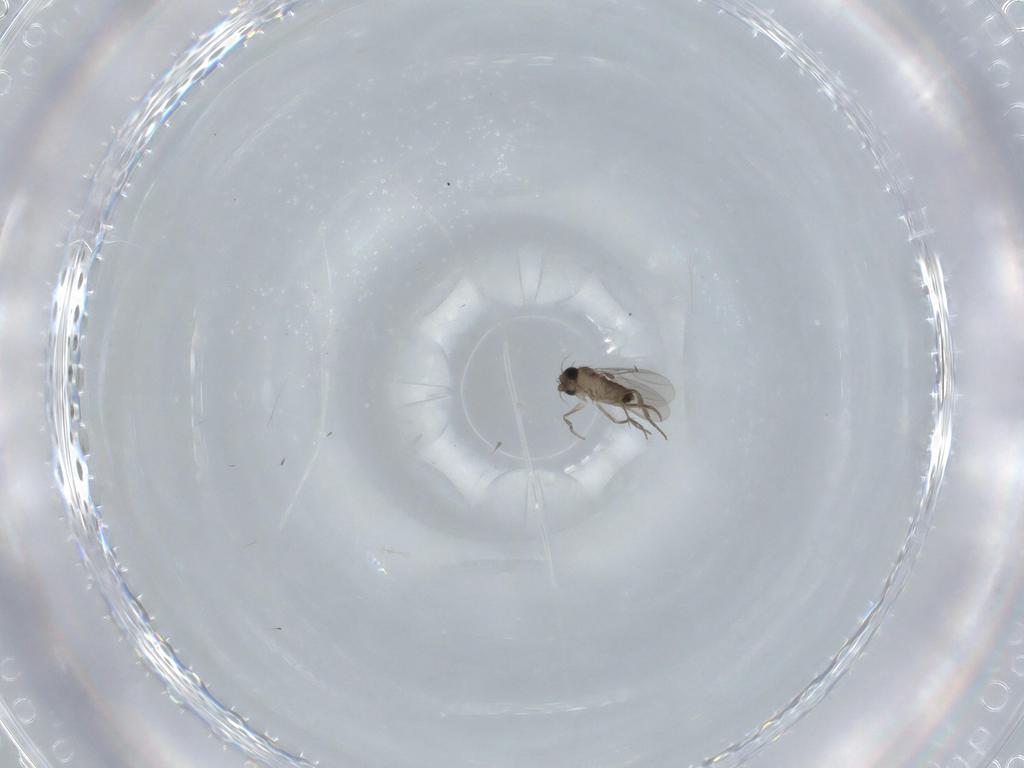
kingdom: Animalia
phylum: Arthropoda
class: Insecta
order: Diptera
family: Phoridae
